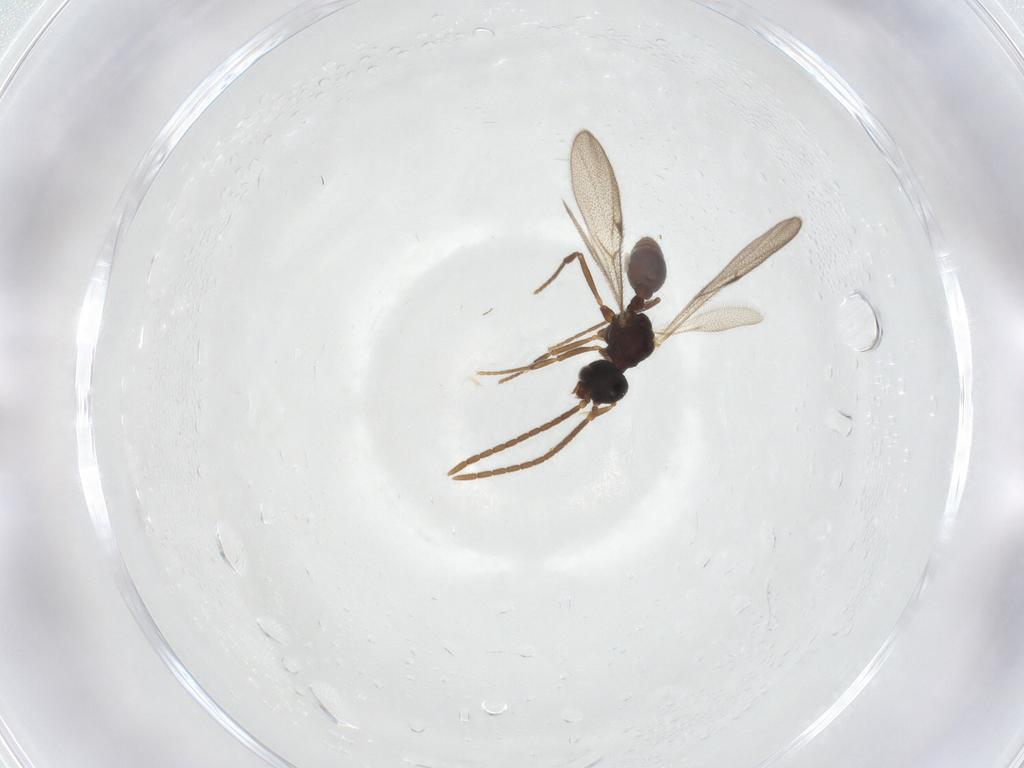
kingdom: Animalia
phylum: Arthropoda
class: Insecta
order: Hymenoptera
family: Formicidae
